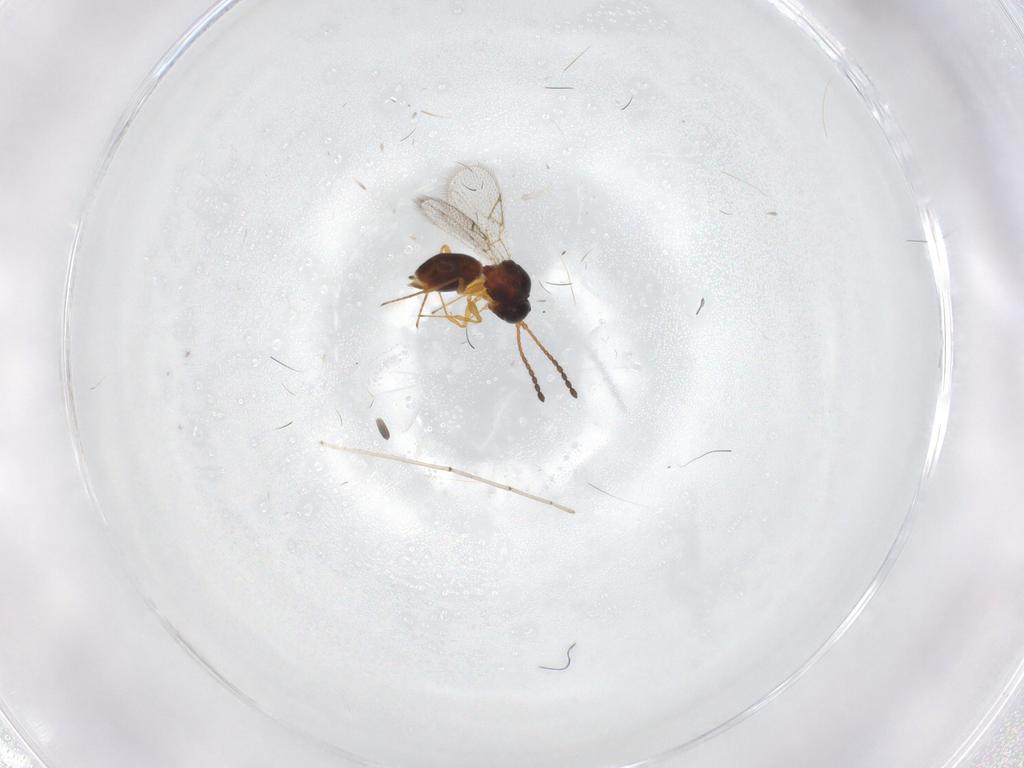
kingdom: Animalia
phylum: Arthropoda
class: Insecta
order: Hymenoptera
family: Figitidae
